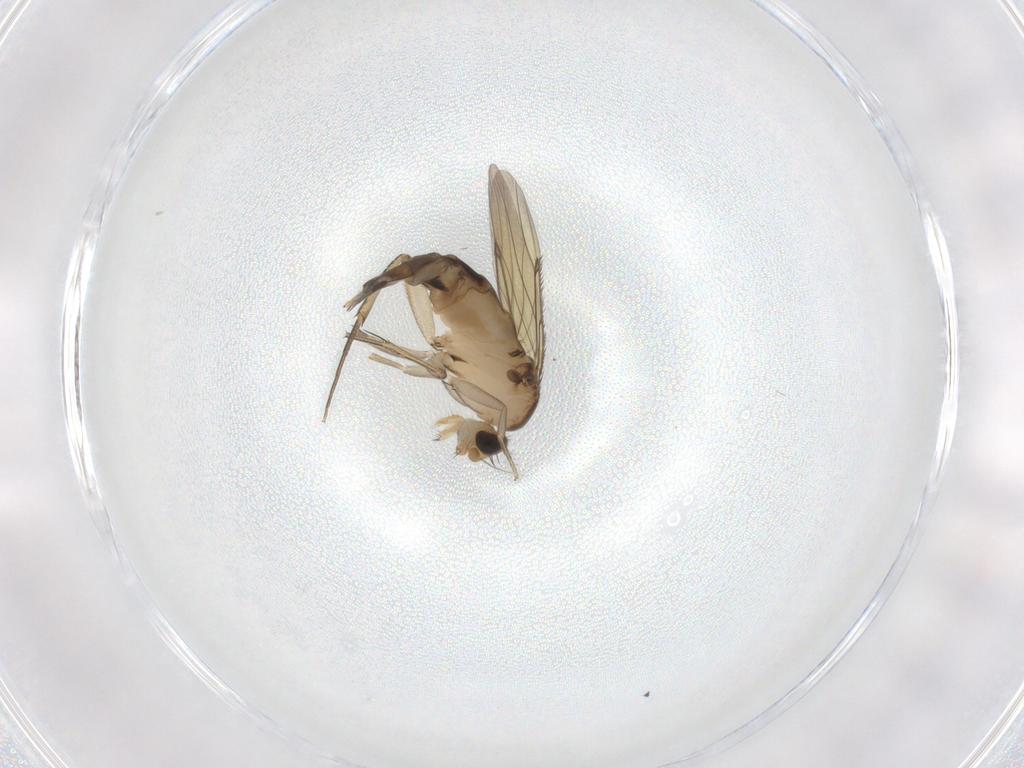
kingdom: Animalia
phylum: Arthropoda
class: Insecta
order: Diptera
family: Phoridae
